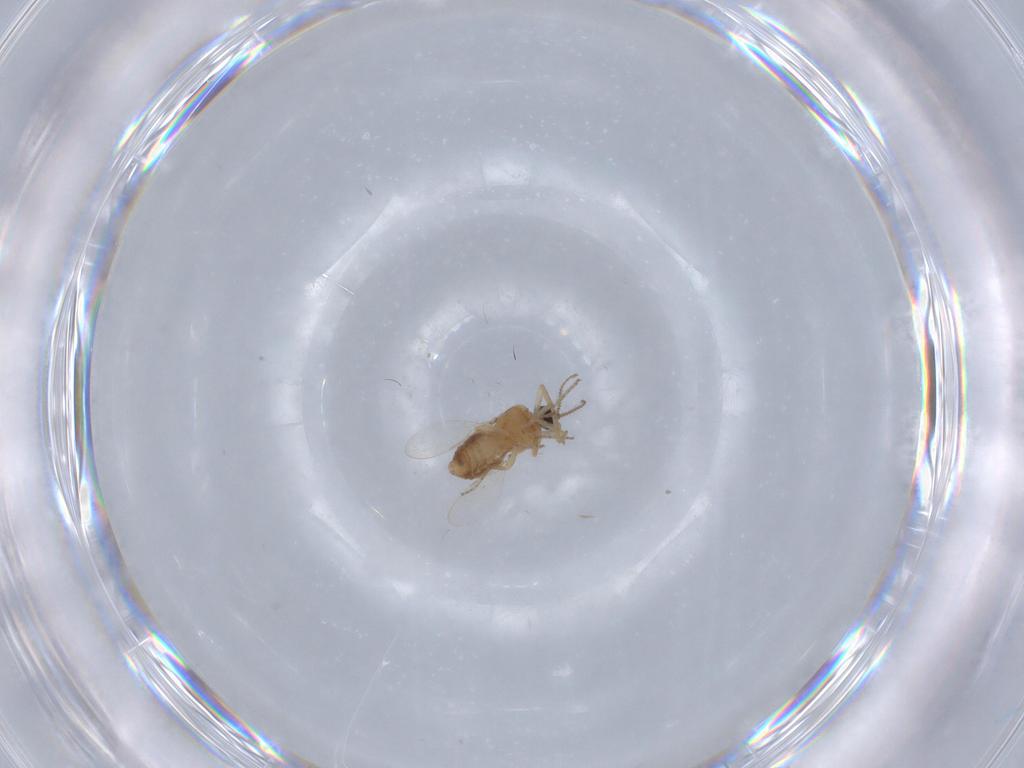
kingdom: Animalia
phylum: Arthropoda
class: Insecta
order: Diptera
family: Ceratopogonidae
